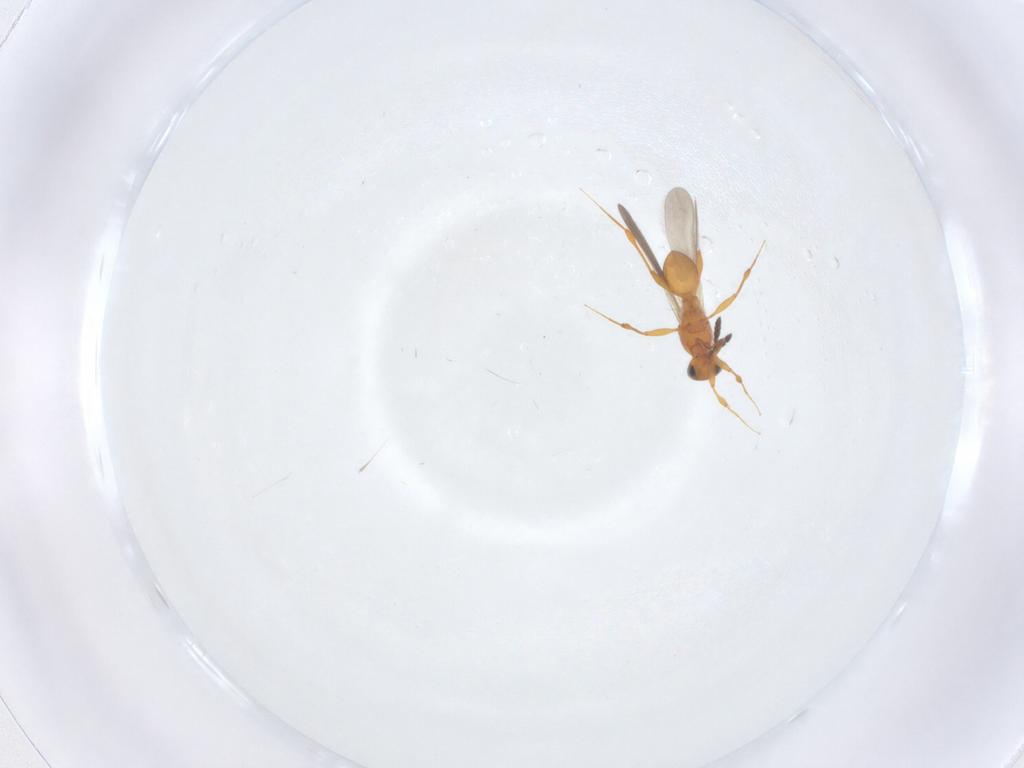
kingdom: Animalia
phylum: Arthropoda
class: Insecta
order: Hymenoptera
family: Platygastridae
